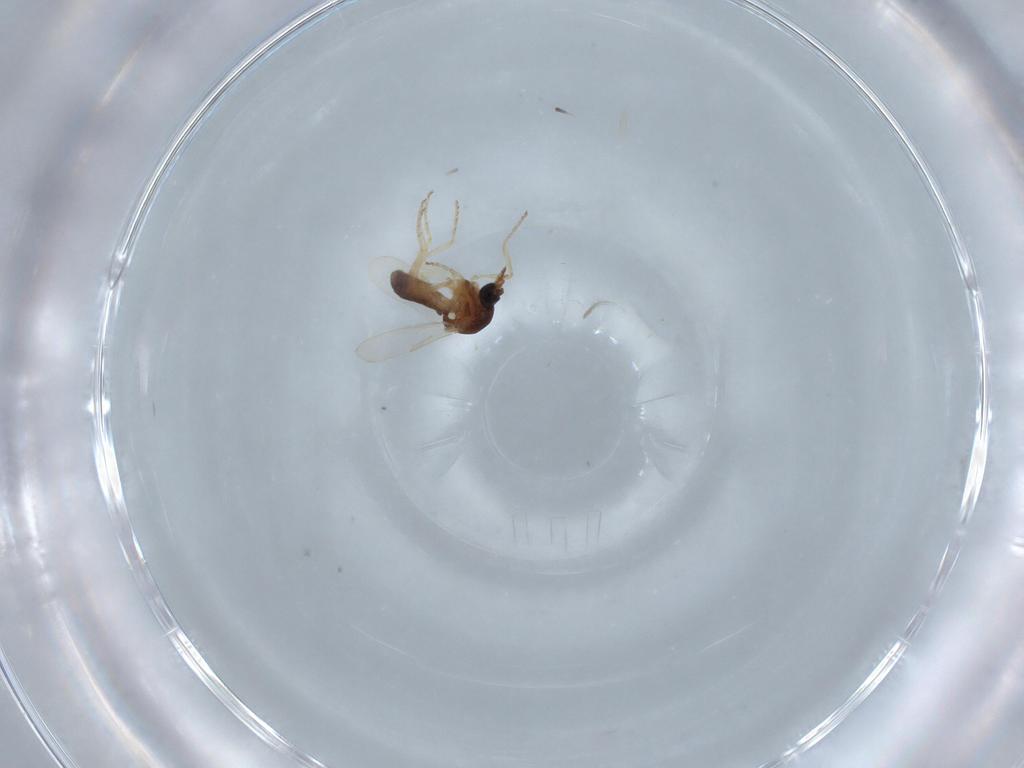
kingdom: Animalia
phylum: Arthropoda
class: Insecta
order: Diptera
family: Ceratopogonidae
